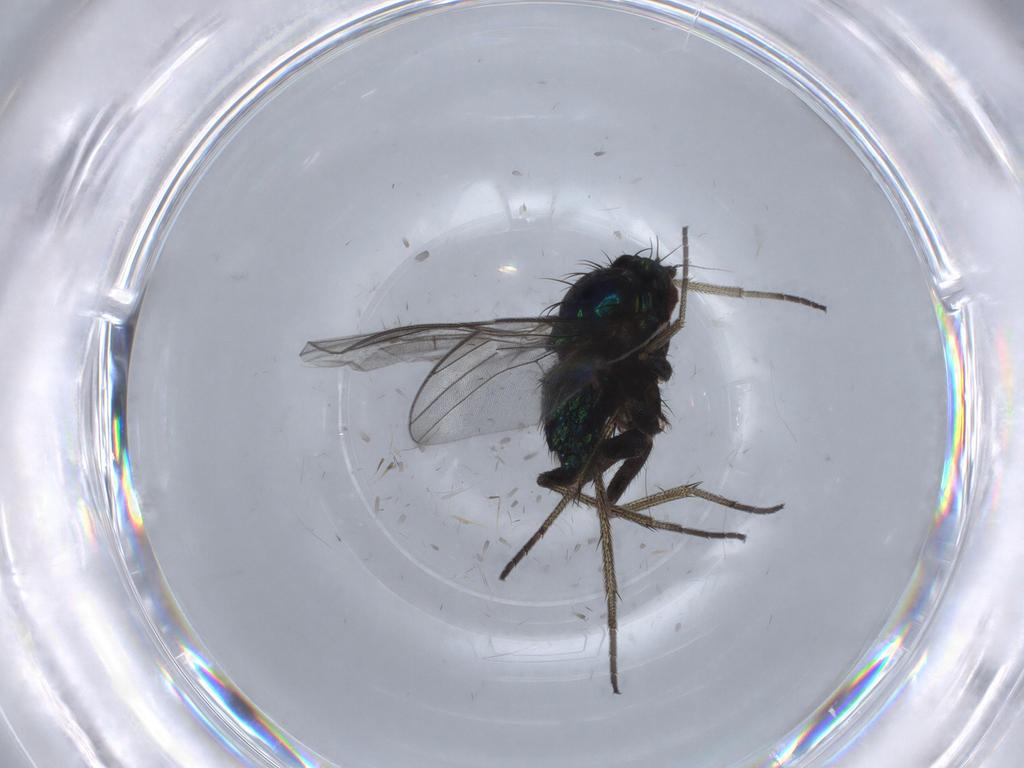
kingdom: Animalia
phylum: Arthropoda
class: Insecta
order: Diptera
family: Dolichopodidae
